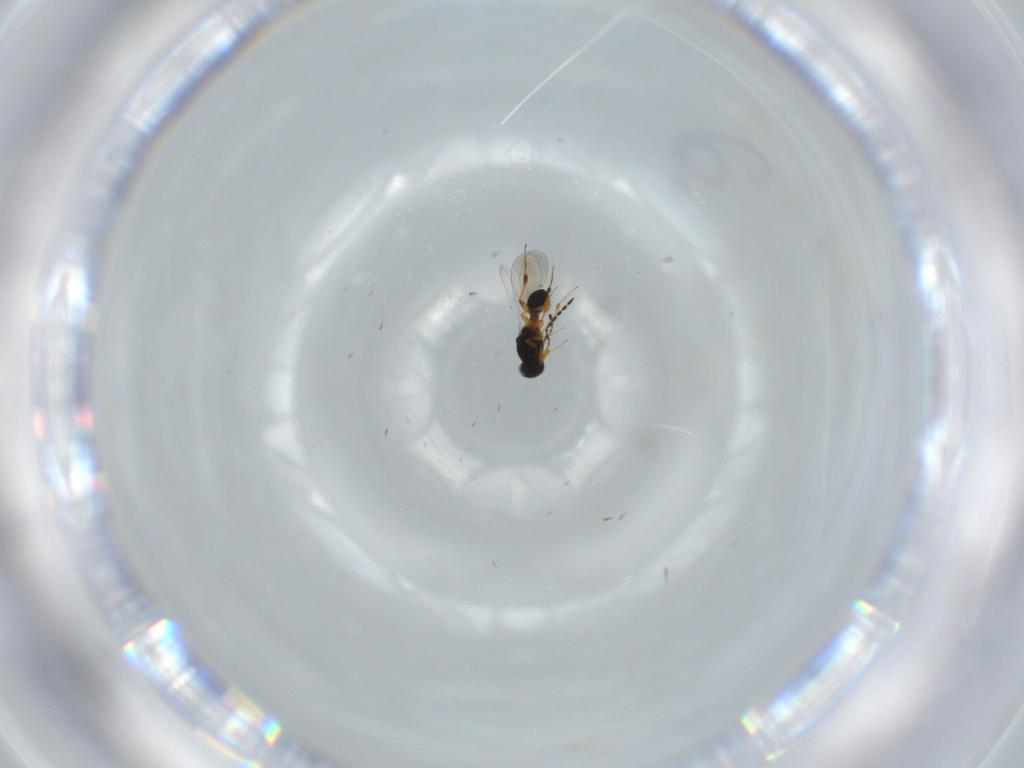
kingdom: Animalia
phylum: Arthropoda
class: Insecta
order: Hymenoptera
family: Platygastridae
